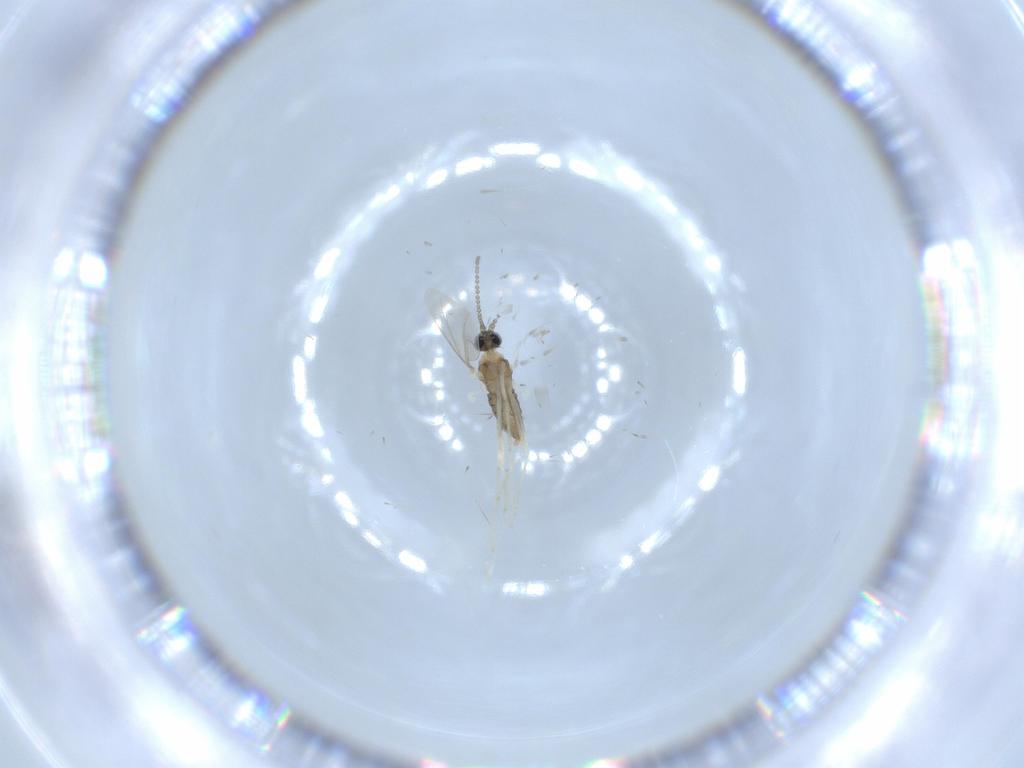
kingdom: Animalia
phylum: Arthropoda
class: Insecta
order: Diptera
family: Cecidomyiidae
